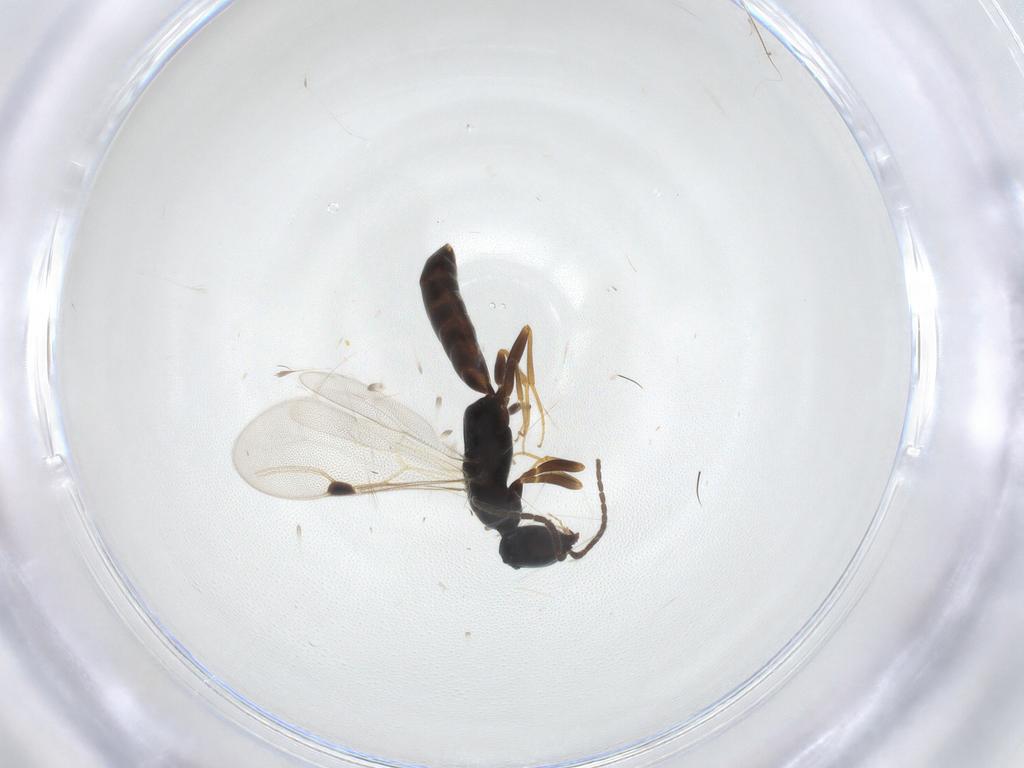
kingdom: Animalia
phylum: Arthropoda
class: Insecta
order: Hymenoptera
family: Bethylidae
